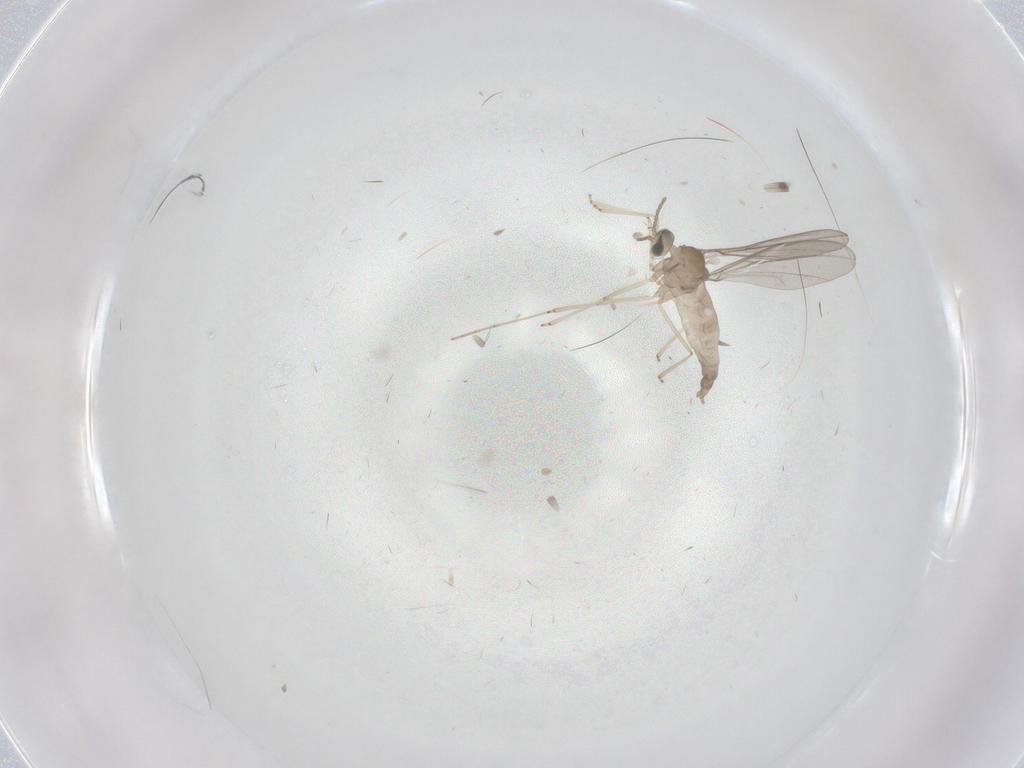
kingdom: Animalia
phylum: Arthropoda
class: Insecta
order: Diptera
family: Cecidomyiidae
